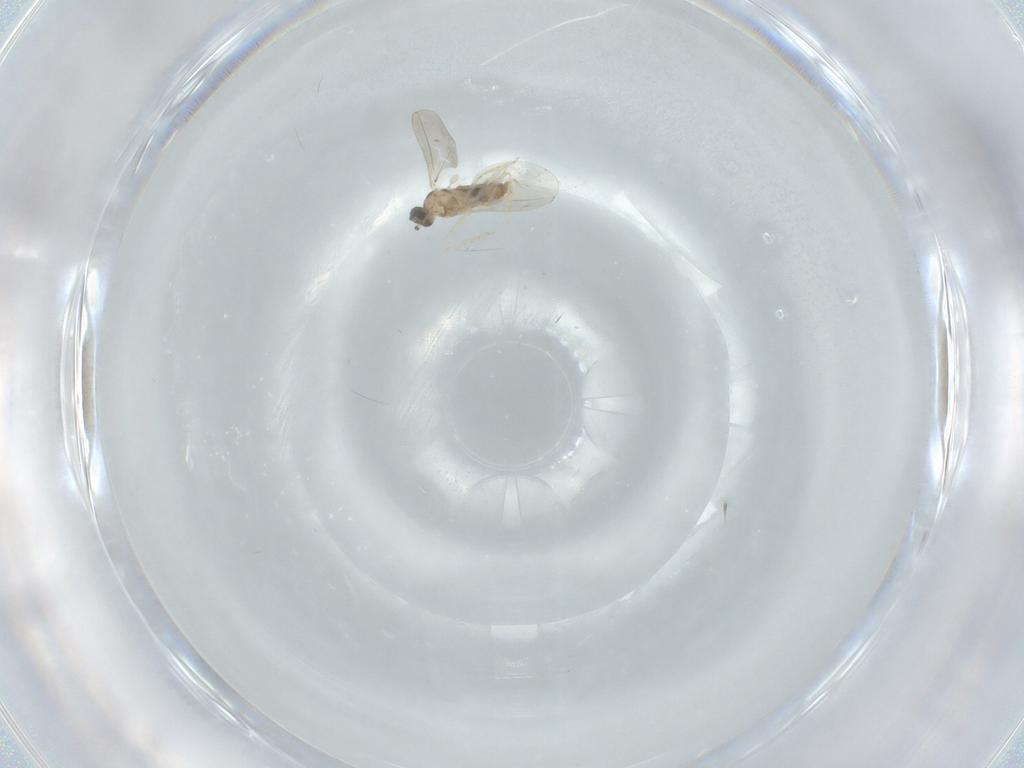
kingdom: Animalia
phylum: Arthropoda
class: Insecta
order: Diptera
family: Cecidomyiidae
